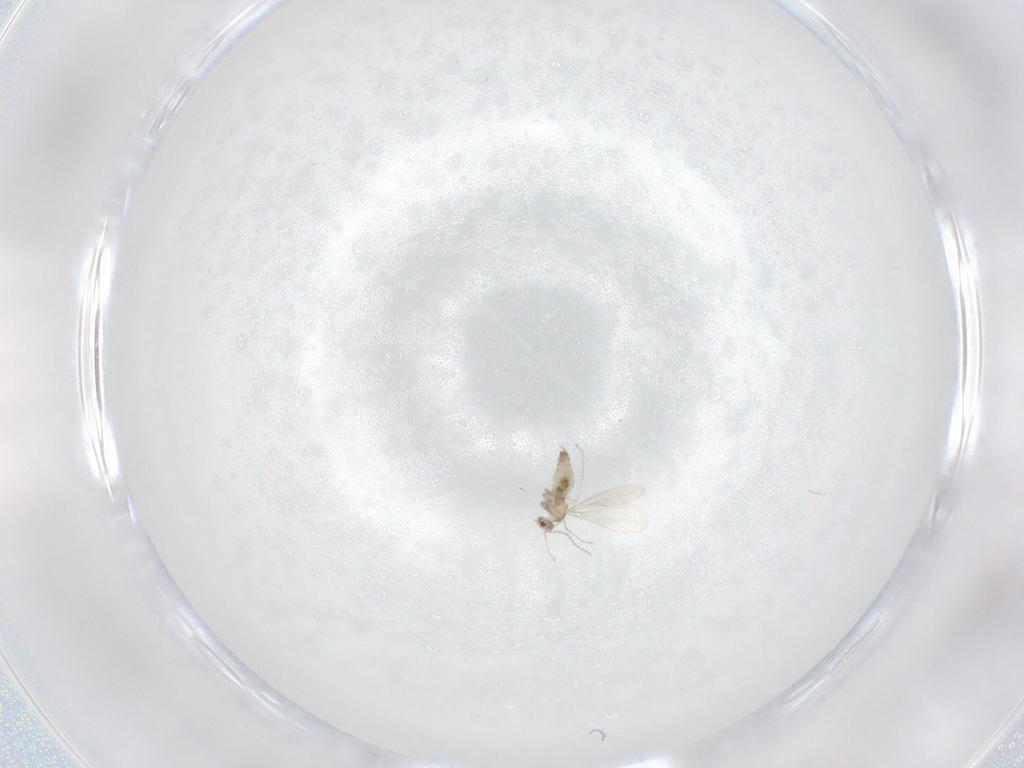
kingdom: Animalia
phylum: Arthropoda
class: Insecta
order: Diptera
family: Cecidomyiidae
